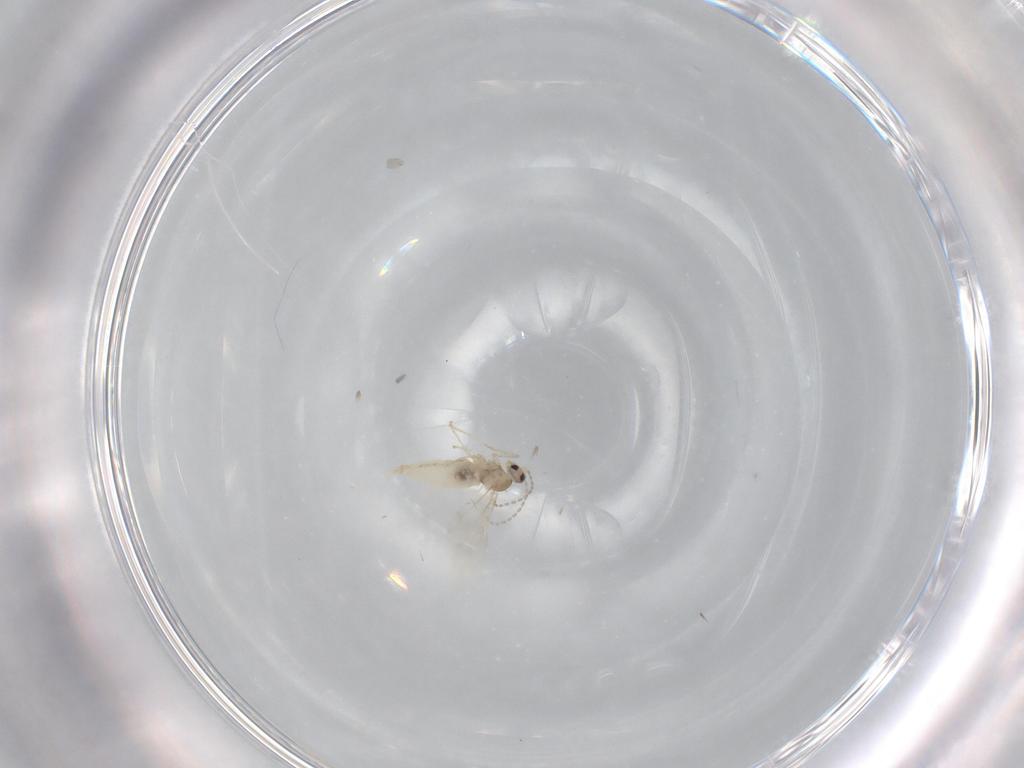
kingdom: Animalia
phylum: Arthropoda
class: Insecta
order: Diptera
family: Cecidomyiidae
